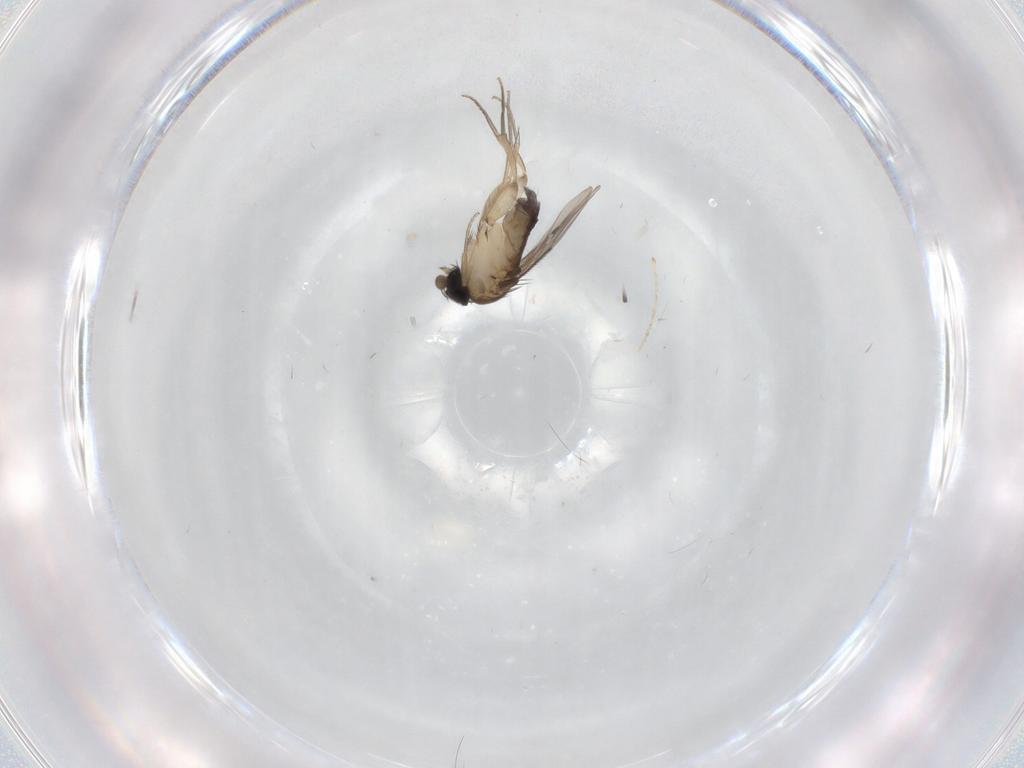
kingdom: Animalia
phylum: Arthropoda
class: Insecta
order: Diptera
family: Phoridae
